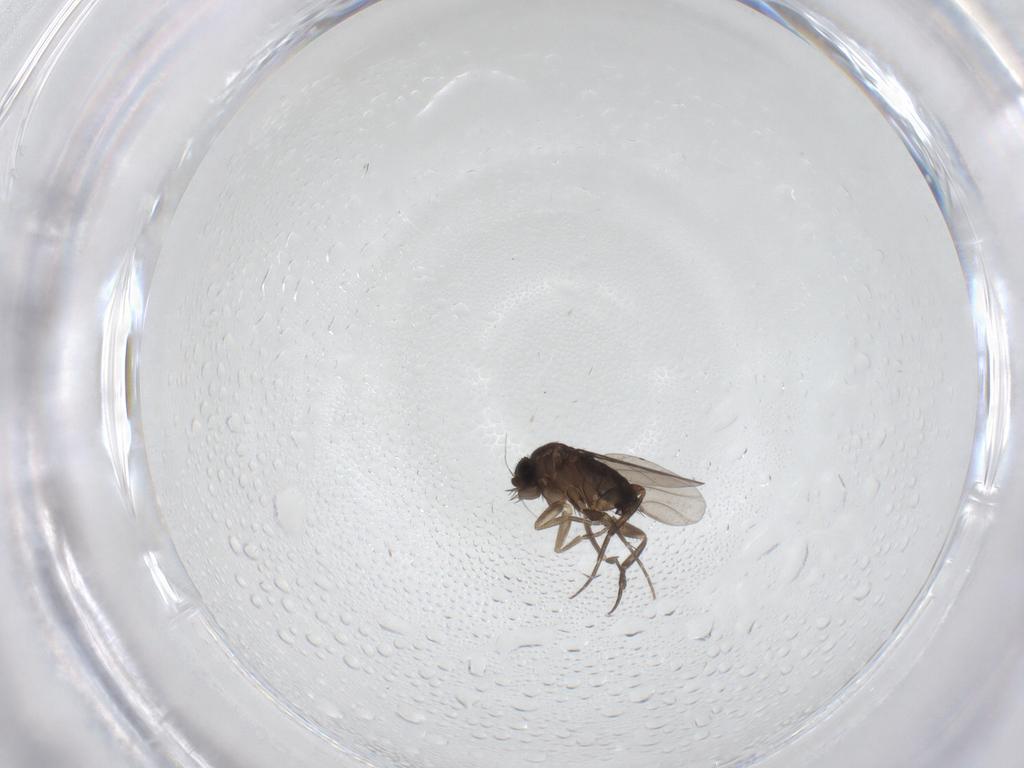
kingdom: Animalia
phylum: Arthropoda
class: Insecta
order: Diptera
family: Phoridae
